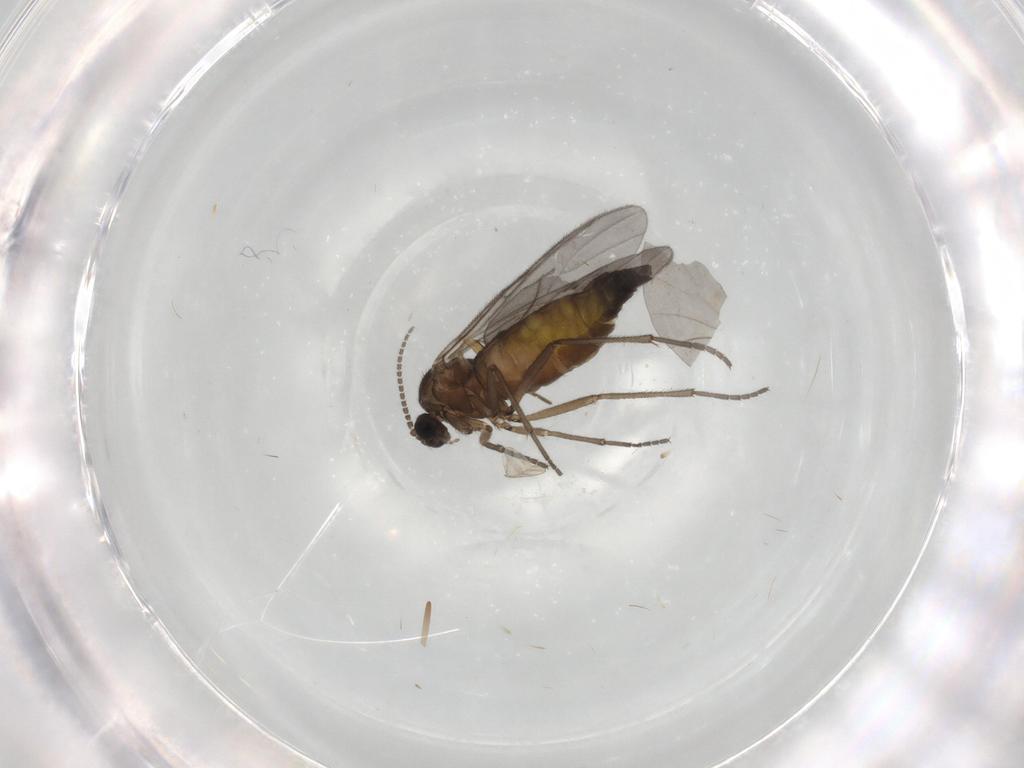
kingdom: Animalia
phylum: Arthropoda
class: Insecta
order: Diptera
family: Sciaridae
